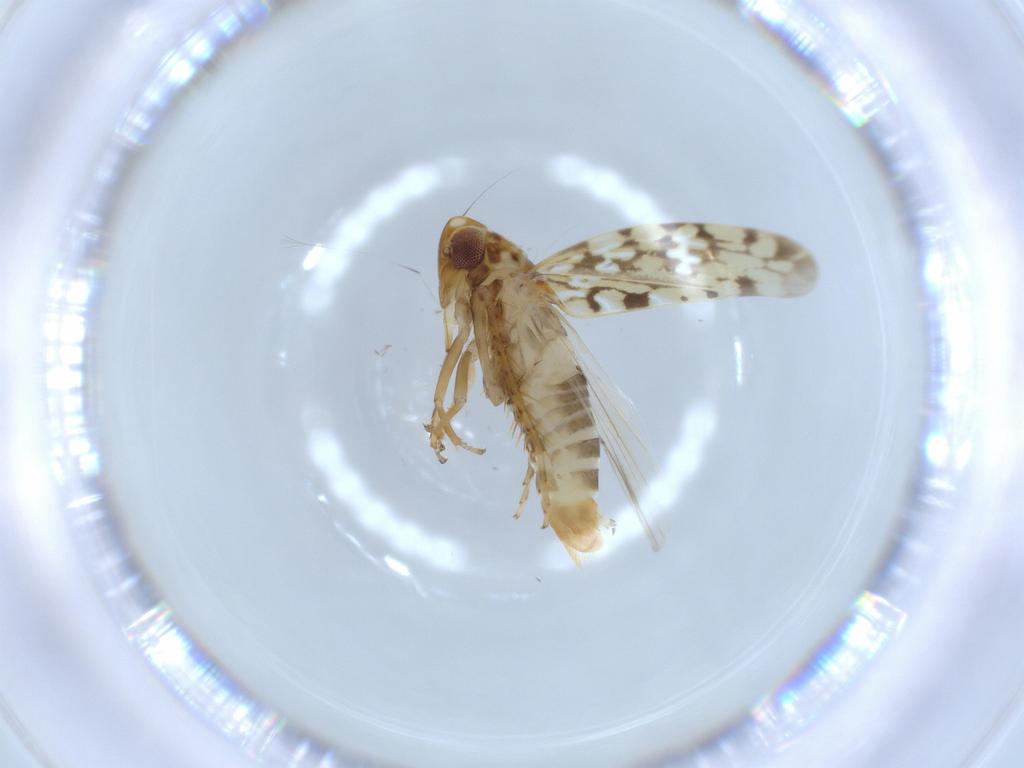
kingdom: Animalia
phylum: Arthropoda
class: Insecta
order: Hemiptera
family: Cicadellidae
